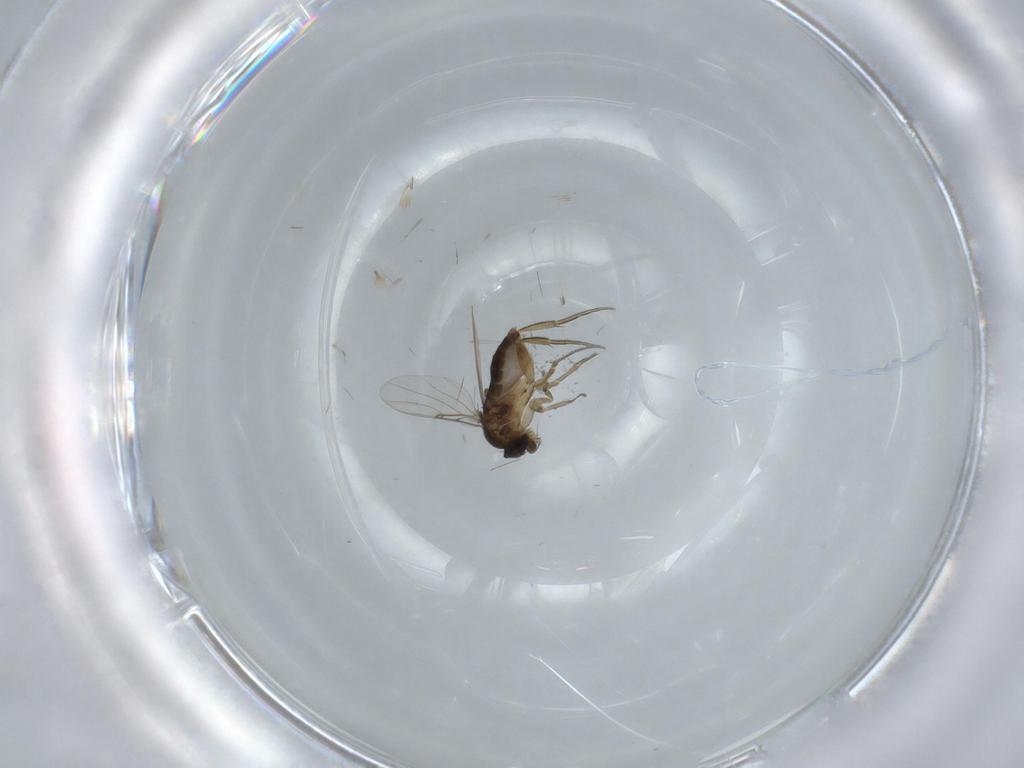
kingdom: Animalia
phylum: Arthropoda
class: Insecta
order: Diptera
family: Phoridae
